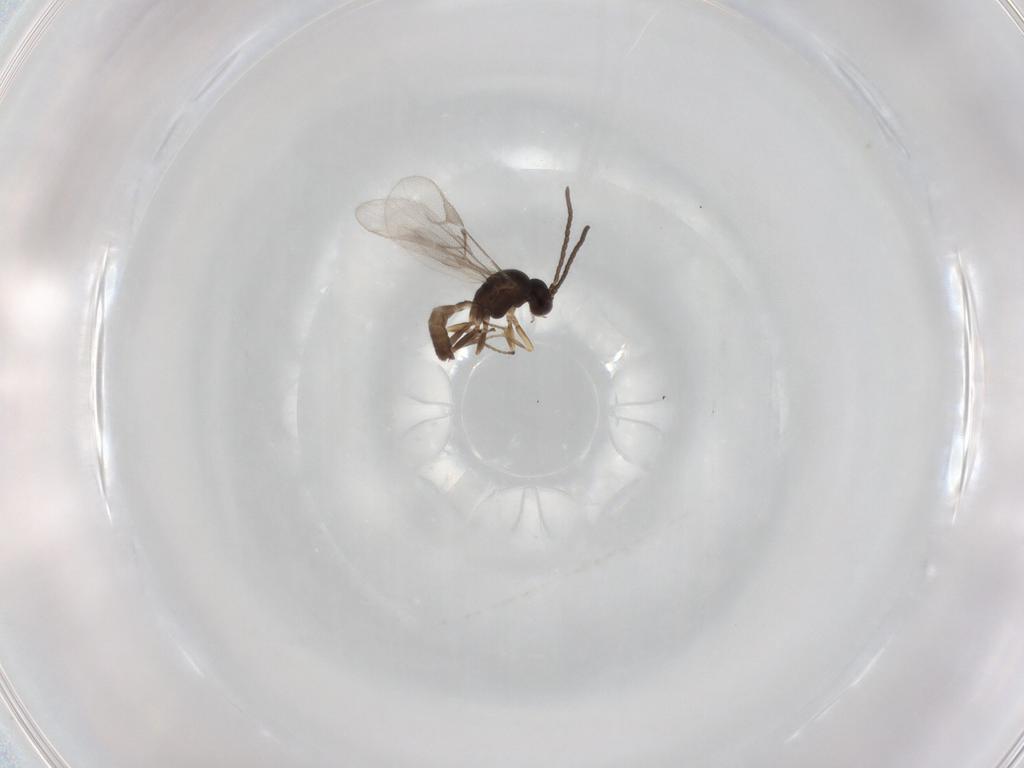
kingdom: Animalia
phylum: Arthropoda
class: Insecta
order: Hymenoptera
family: Braconidae
